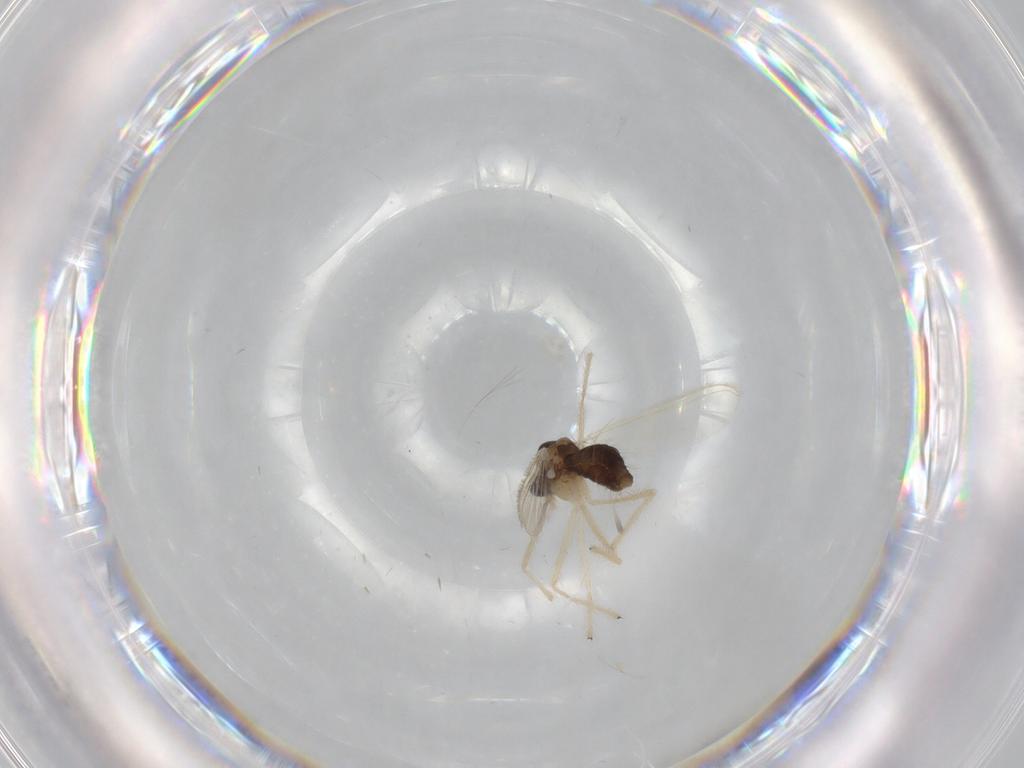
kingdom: Animalia
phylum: Arthropoda
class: Insecta
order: Diptera
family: Chironomidae
